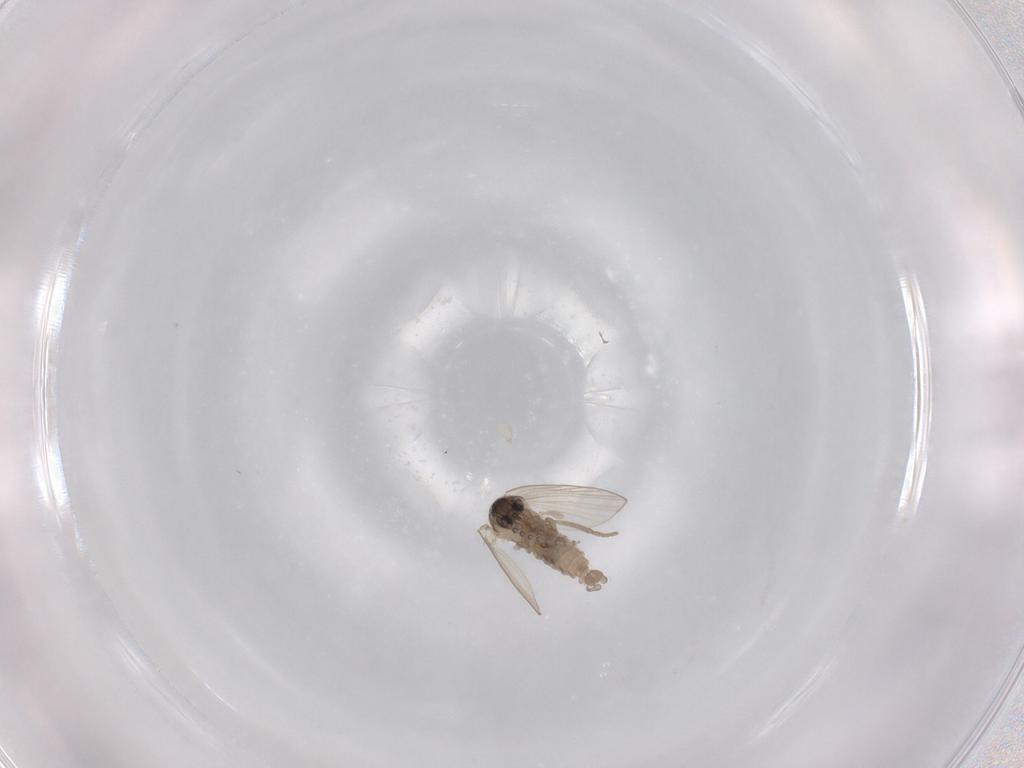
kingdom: Animalia
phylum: Arthropoda
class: Insecta
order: Diptera
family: Psychodidae
